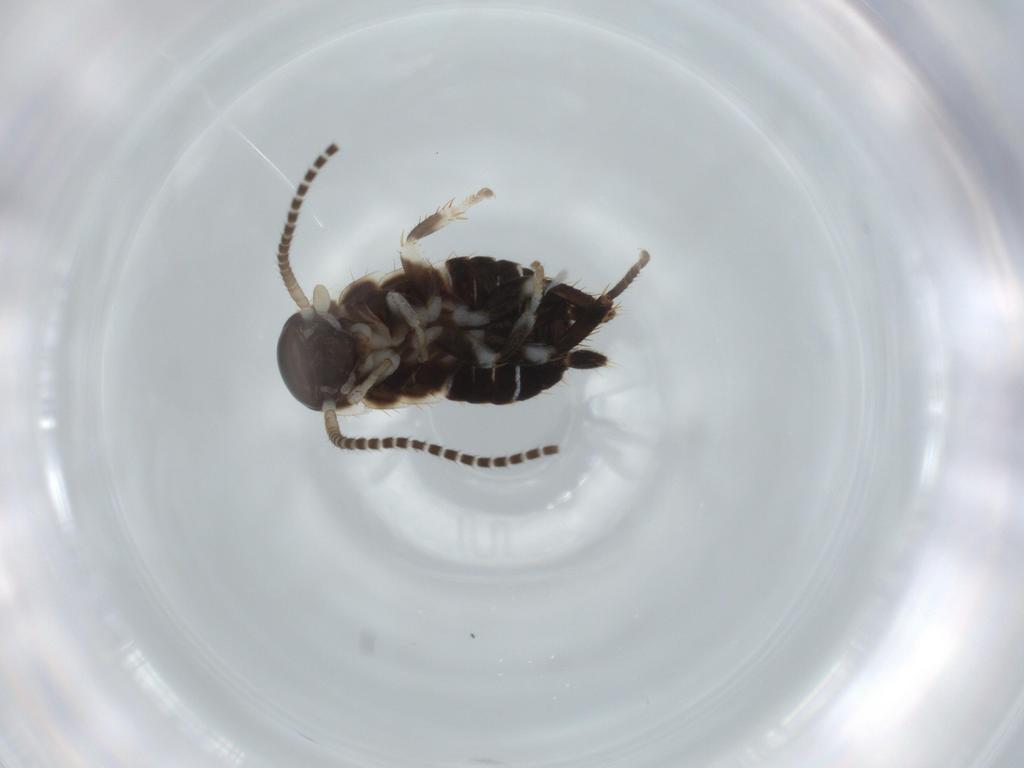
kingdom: Animalia
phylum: Arthropoda
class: Insecta
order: Blattodea
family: Ectobiidae
